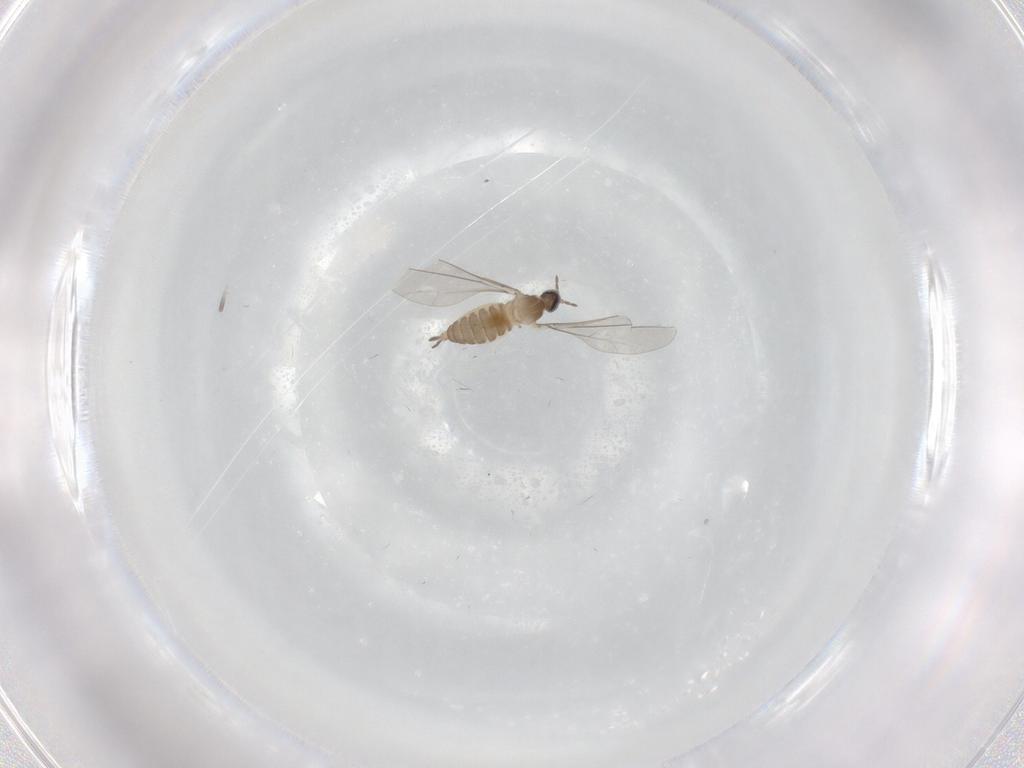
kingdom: Animalia
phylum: Arthropoda
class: Insecta
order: Diptera
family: Cecidomyiidae
